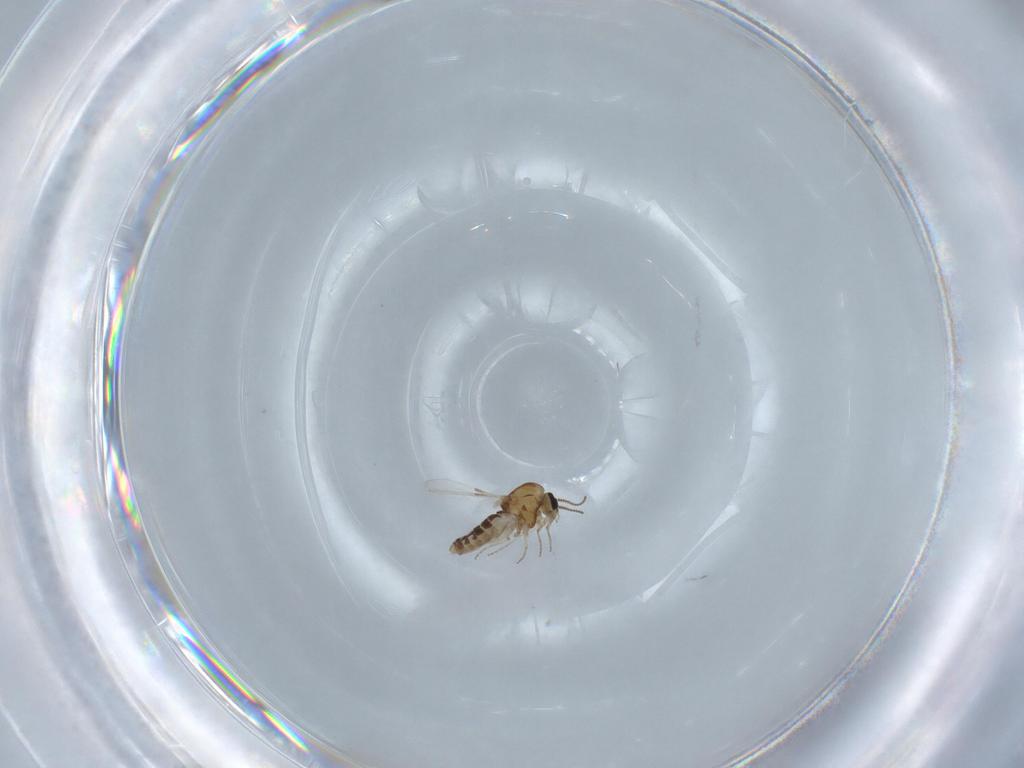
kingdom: Animalia
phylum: Arthropoda
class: Insecta
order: Diptera
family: Ceratopogonidae
